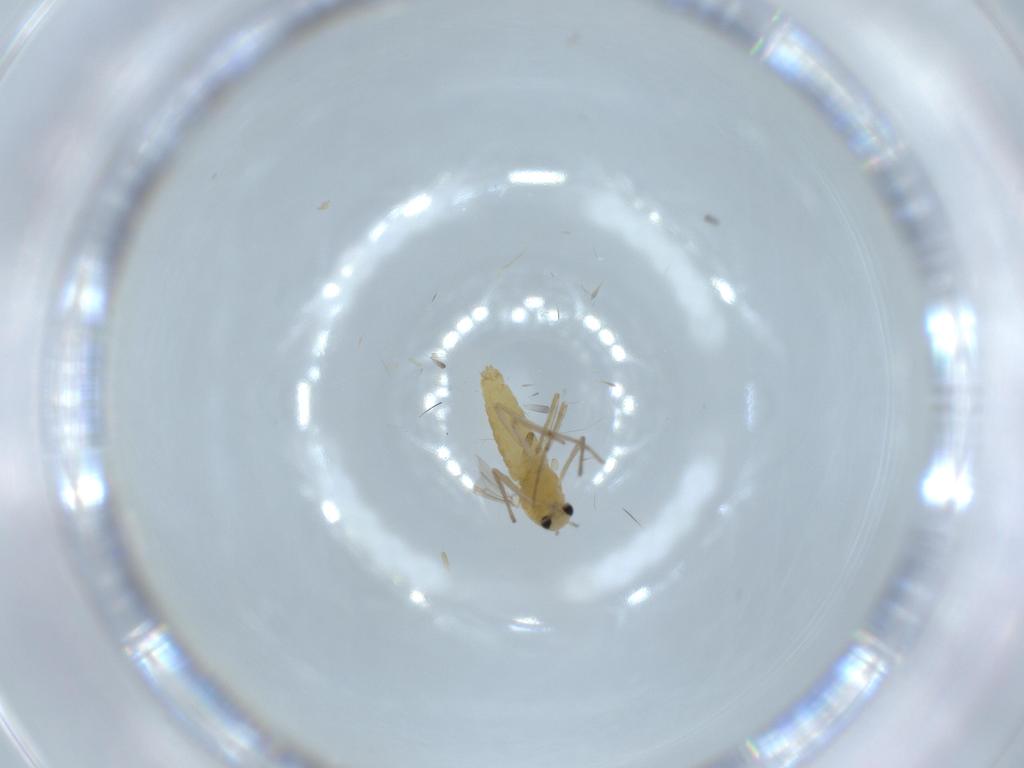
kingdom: Animalia
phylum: Arthropoda
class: Insecta
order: Diptera
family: Chironomidae
